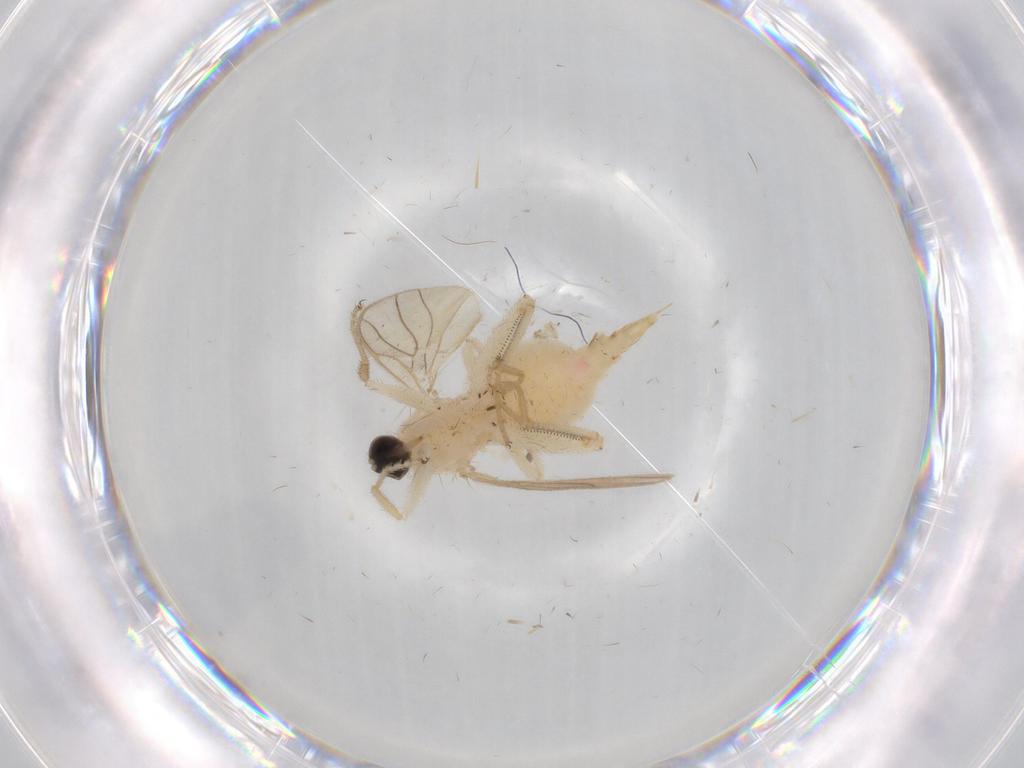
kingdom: Animalia
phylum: Arthropoda
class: Insecta
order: Diptera
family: Hybotidae
